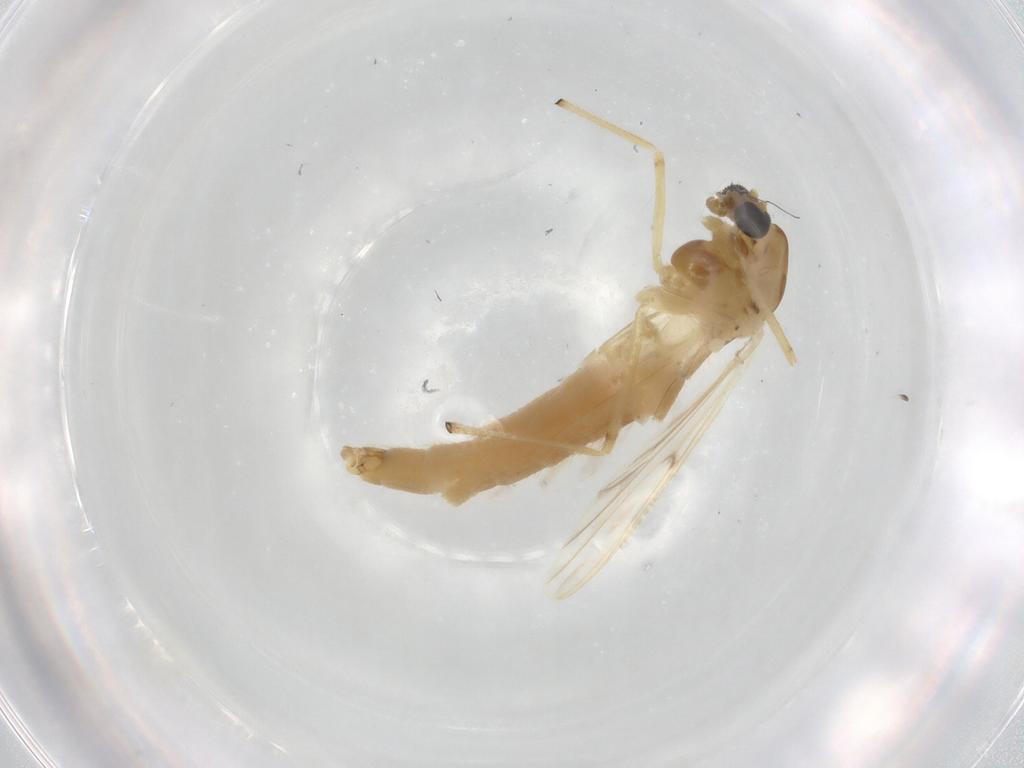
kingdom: Animalia
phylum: Arthropoda
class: Insecta
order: Diptera
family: Chironomidae
